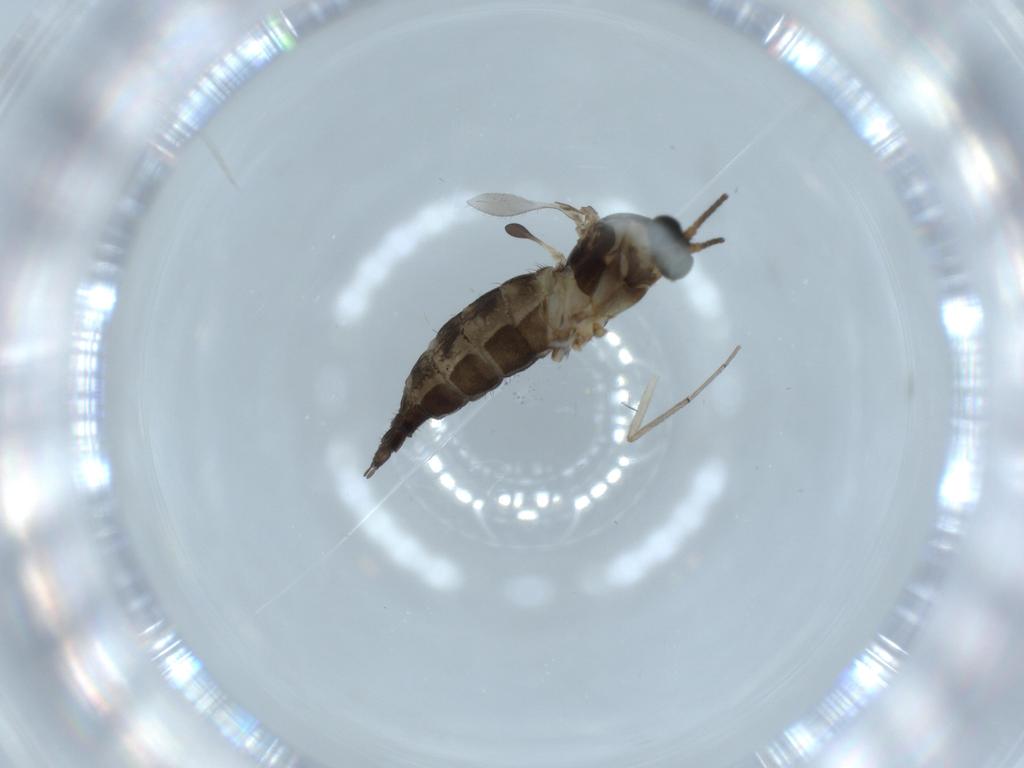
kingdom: Animalia
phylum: Arthropoda
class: Insecta
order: Diptera
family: Sciaridae
